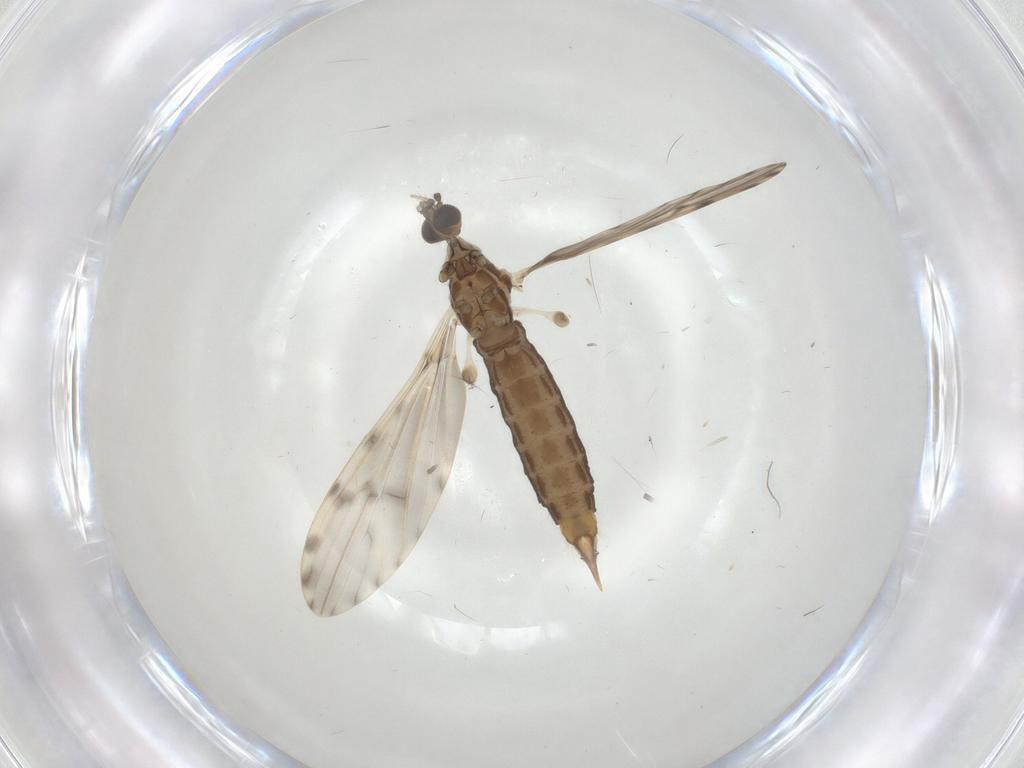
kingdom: Animalia
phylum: Arthropoda
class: Insecta
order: Diptera
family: Limoniidae
